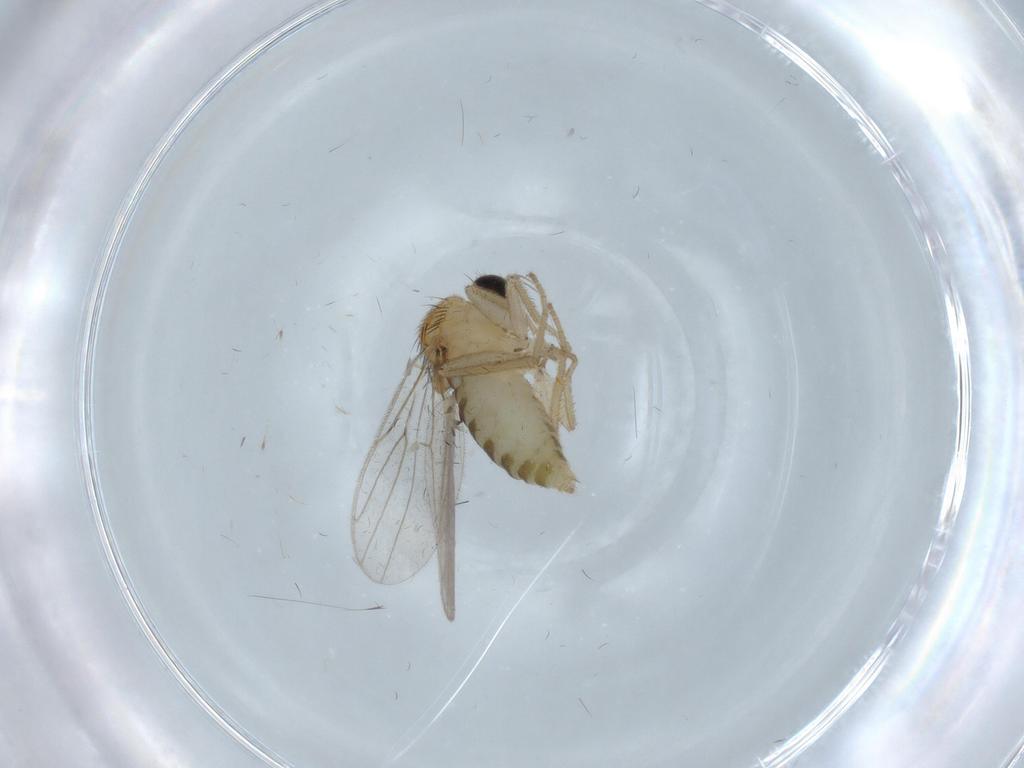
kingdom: Animalia
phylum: Arthropoda
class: Insecta
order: Diptera
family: Hybotidae
